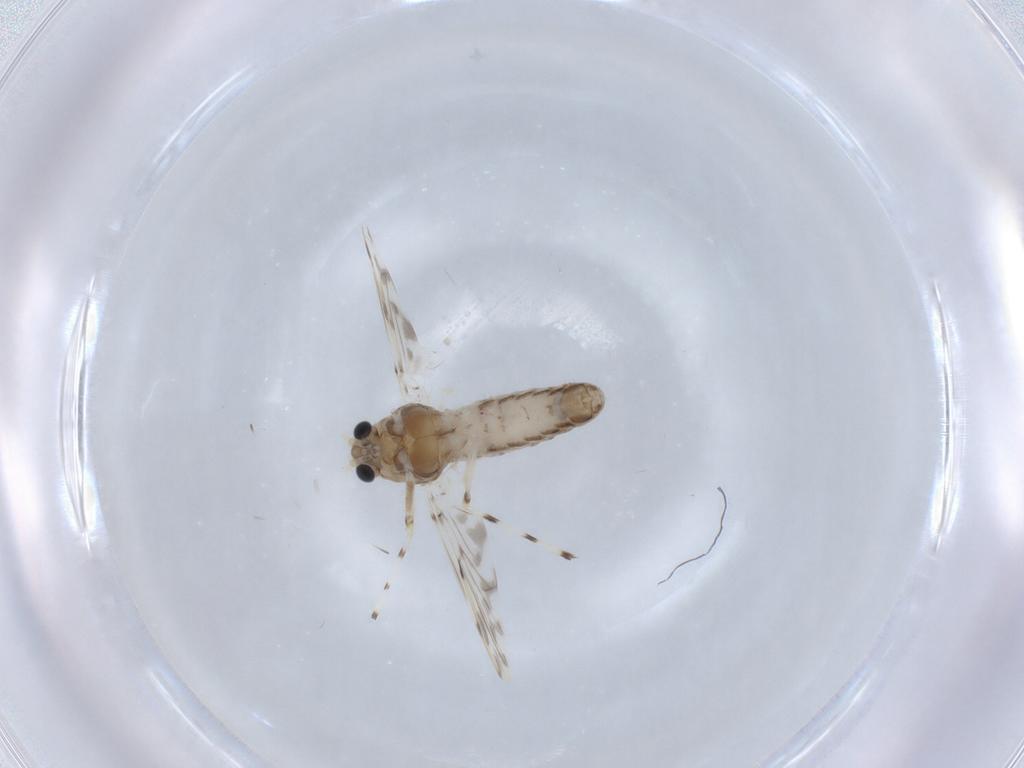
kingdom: Animalia
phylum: Arthropoda
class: Insecta
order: Diptera
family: Chironomidae
